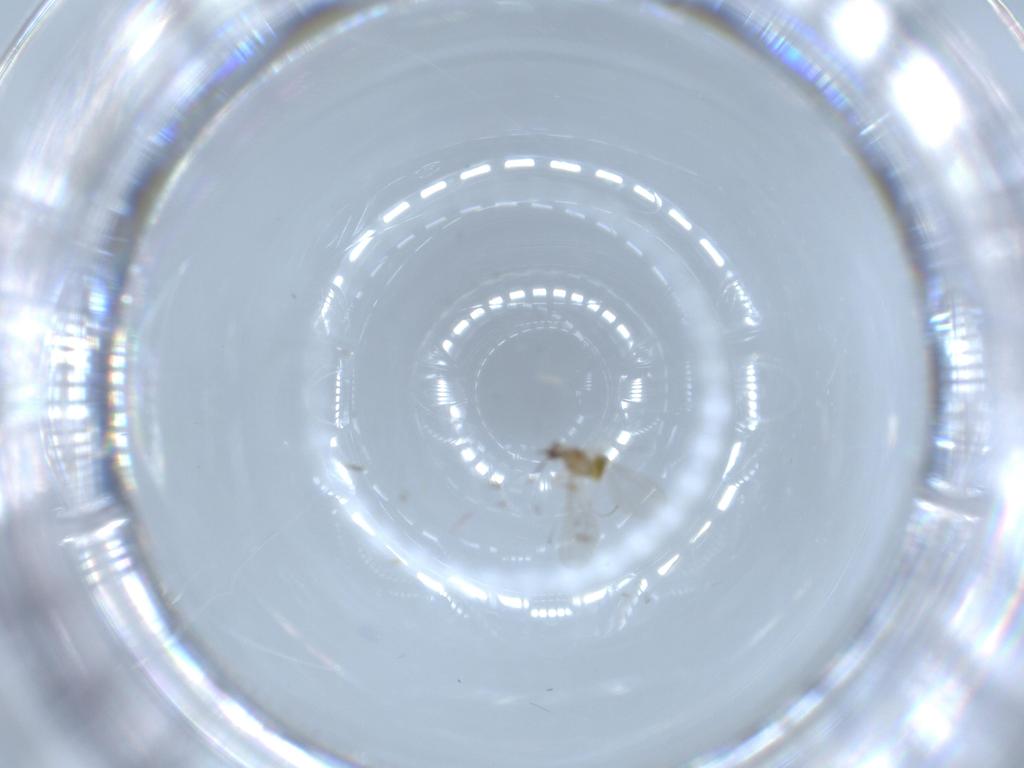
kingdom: Animalia
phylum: Arthropoda
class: Insecta
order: Diptera
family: Cecidomyiidae
